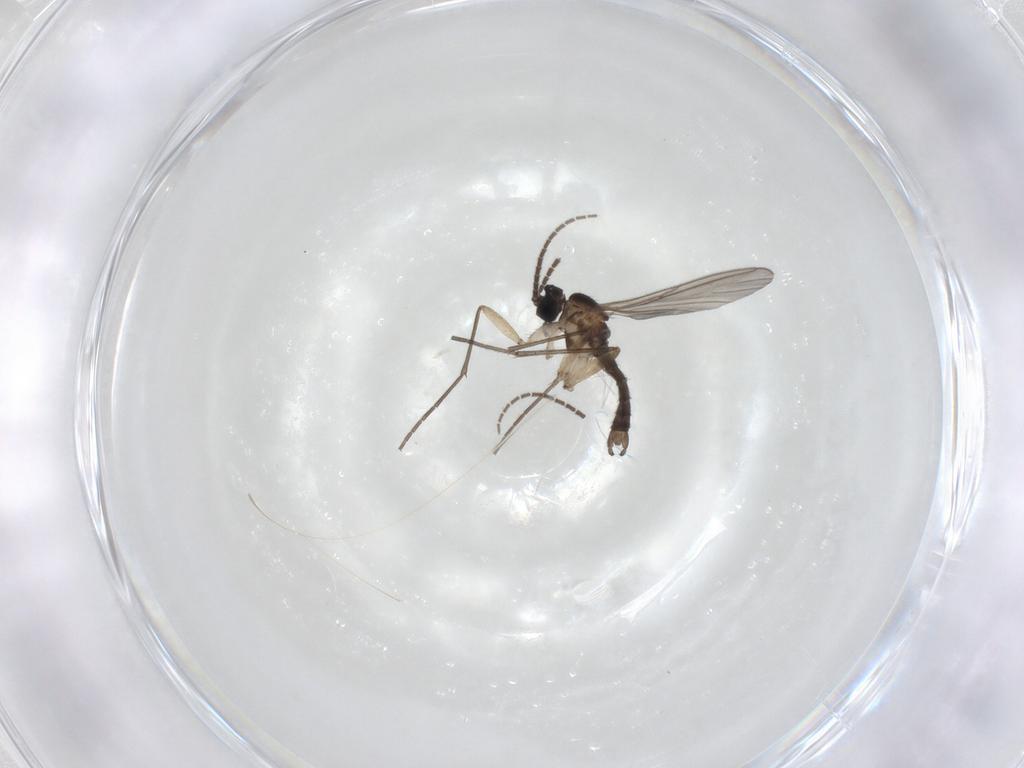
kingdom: Animalia
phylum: Arthropoda
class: Insecta
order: Diptera
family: Sciaridae
